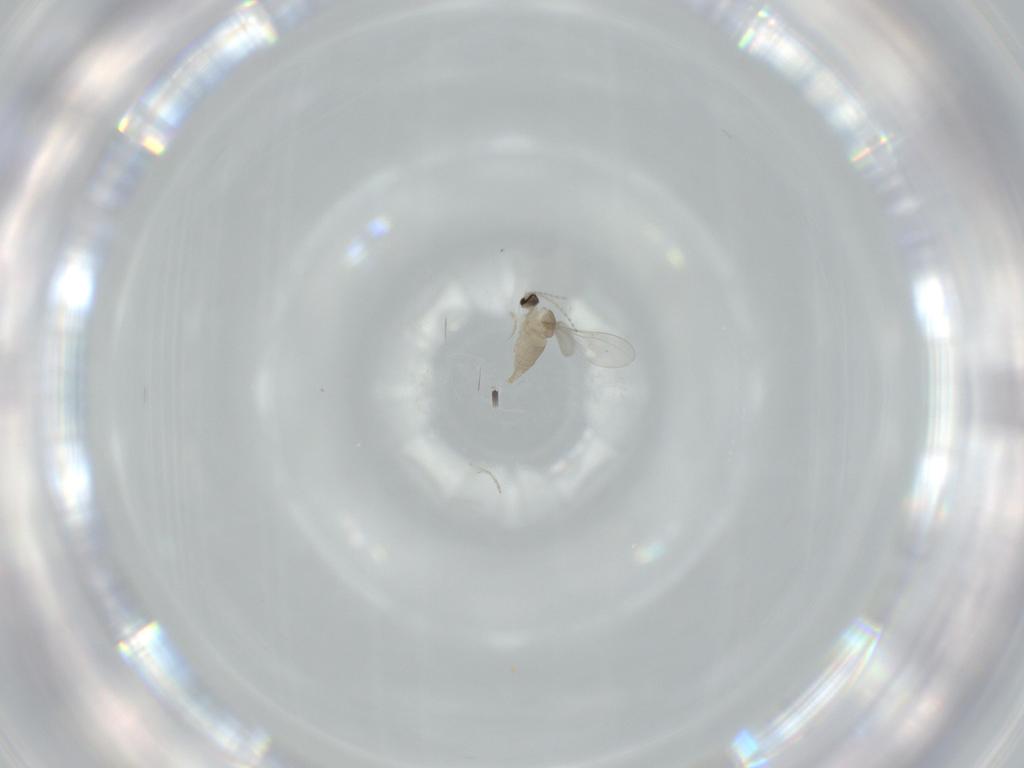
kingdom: Animalia
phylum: Arthropoda
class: Insecta
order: Diptera
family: Cecidomyiidae
